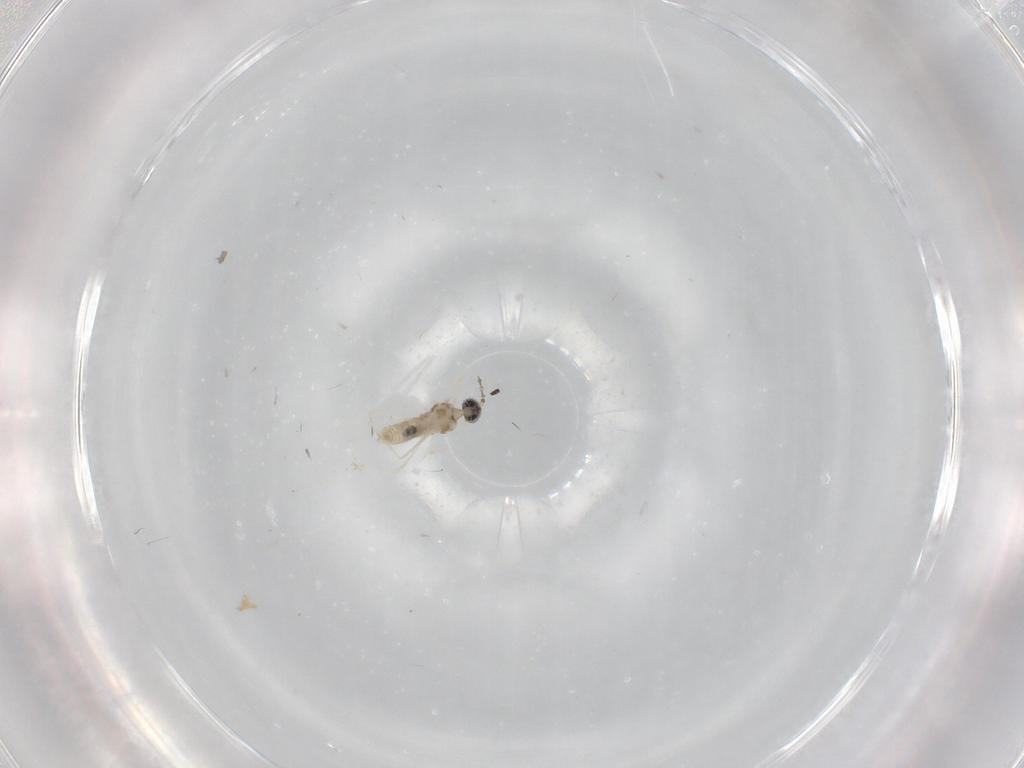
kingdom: Animalia
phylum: Arthropoda
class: Insecta
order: Diptera
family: Cecidomyiidae
